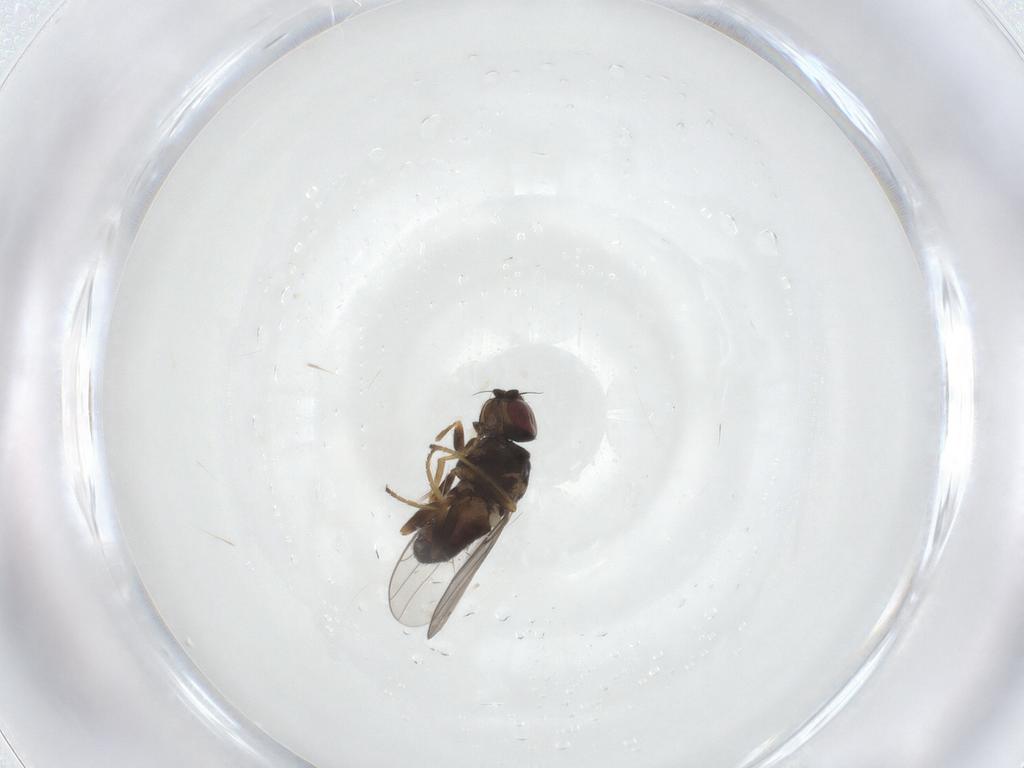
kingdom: Animalia
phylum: Arthropoda
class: Insecta
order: Diptera
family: Chloropidae
